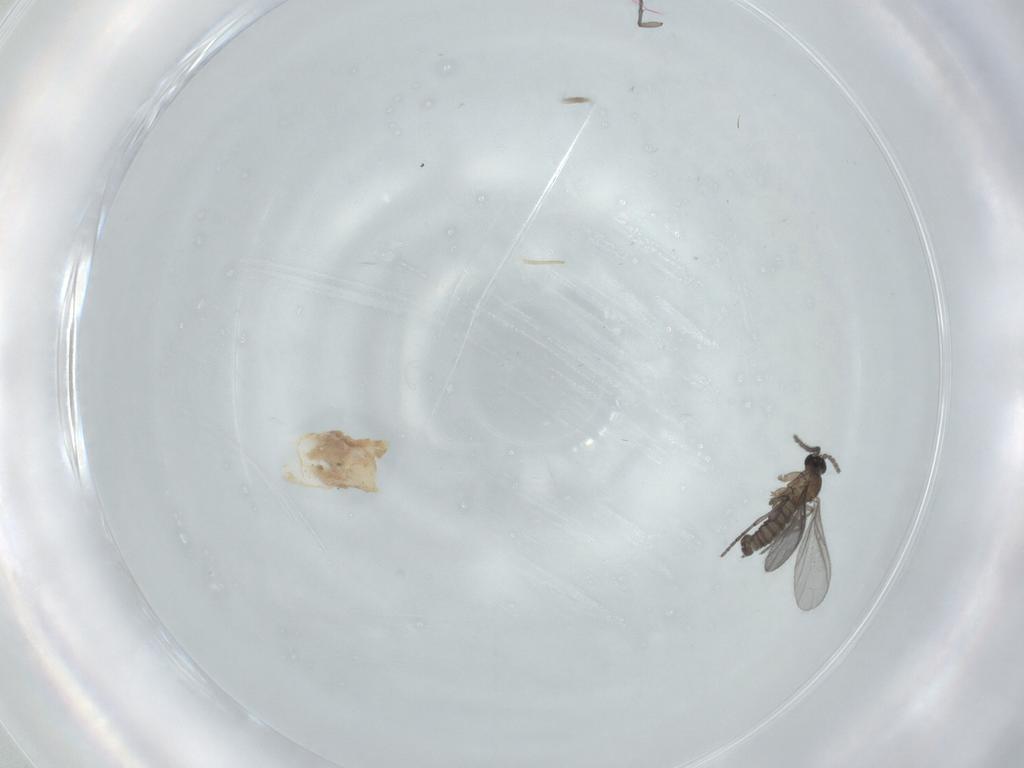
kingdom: Animalia
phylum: Arthropoda
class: Insecta
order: Diptera
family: Sciaridae
